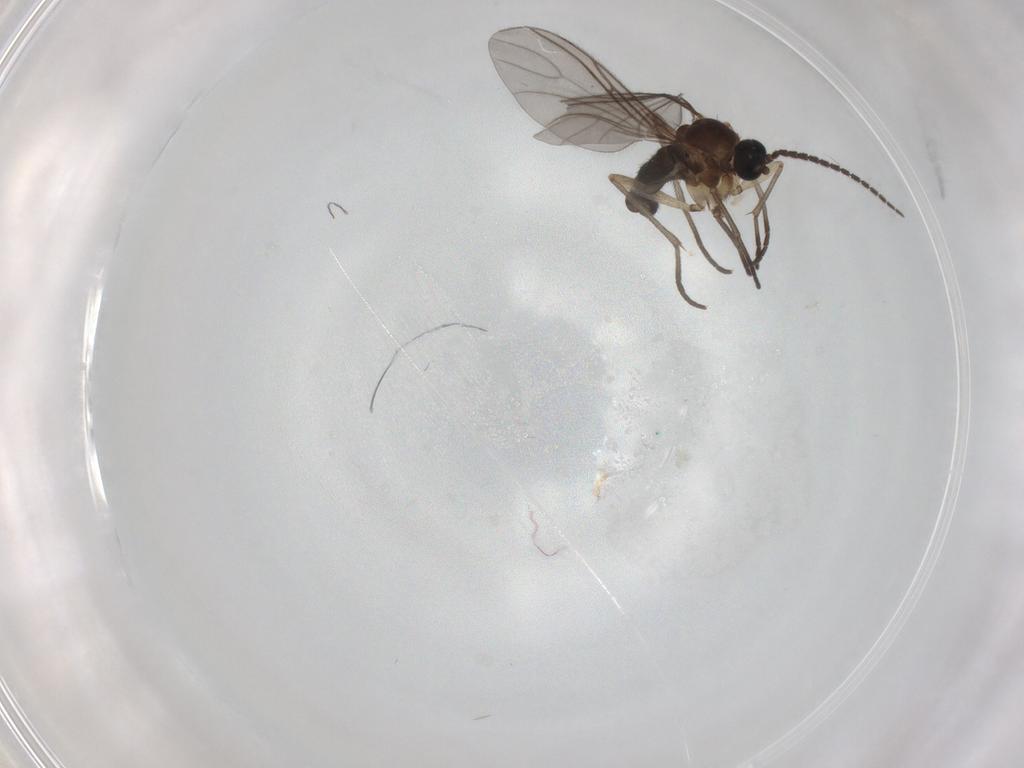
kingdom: Animalia
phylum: Arthropoda
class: Insecta
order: Diptera
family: Sciaridae
